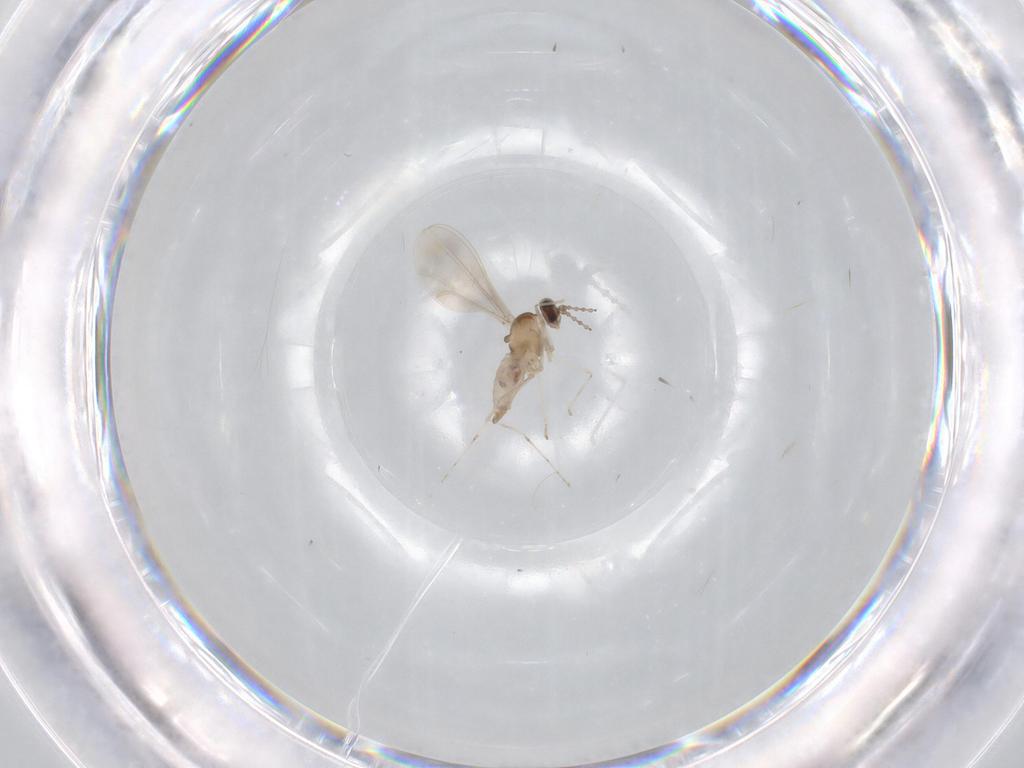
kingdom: Animalia
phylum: Arthropoda
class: Insecta
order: Diptera
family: Cecidomyiidae
